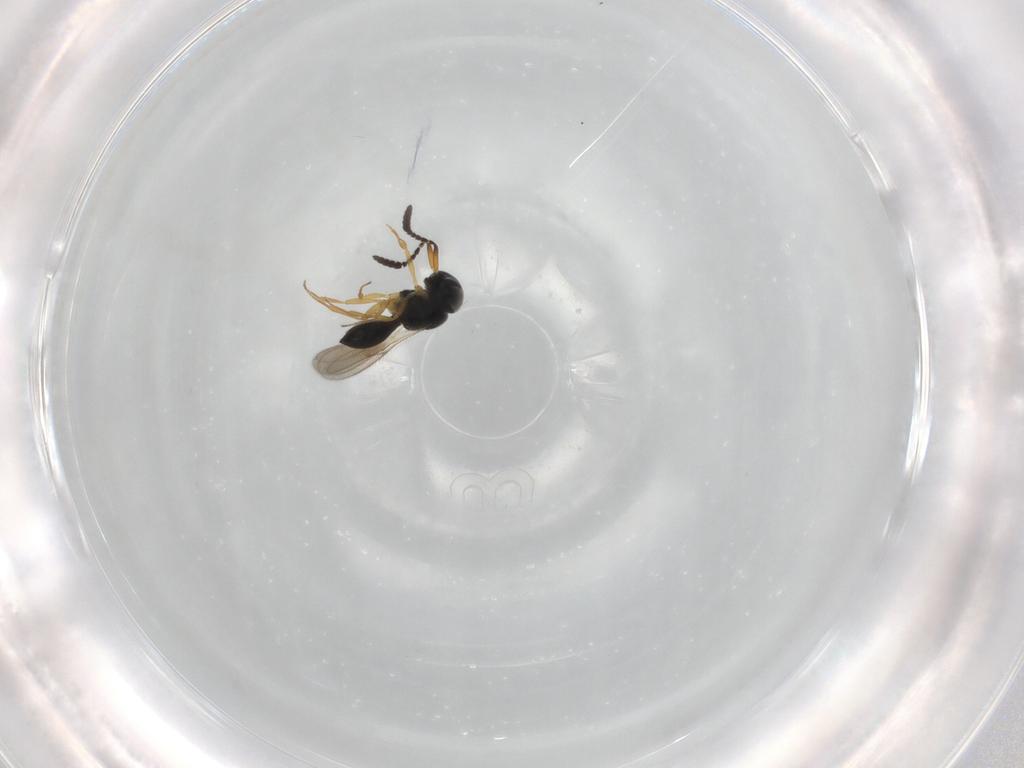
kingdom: Animalia
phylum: Arthropoda
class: Insecta
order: Hymenoptera
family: Scelionidae
